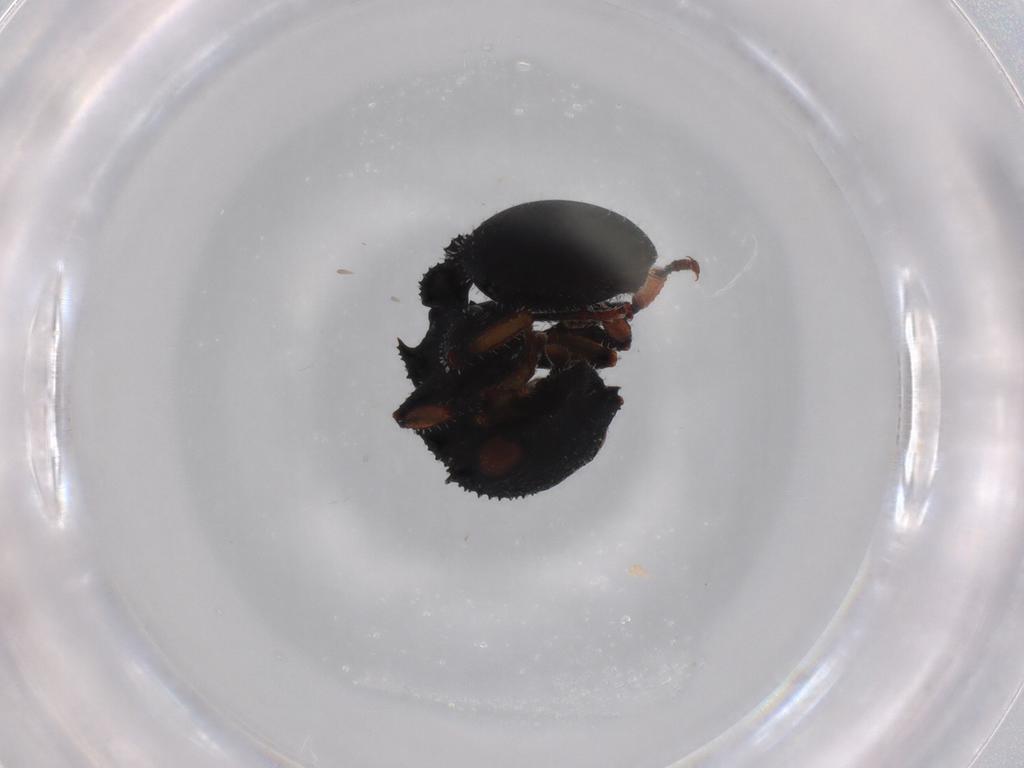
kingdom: Animalia
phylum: Arthropoda
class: Insecta
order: Hymenoptera
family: Formicidae
